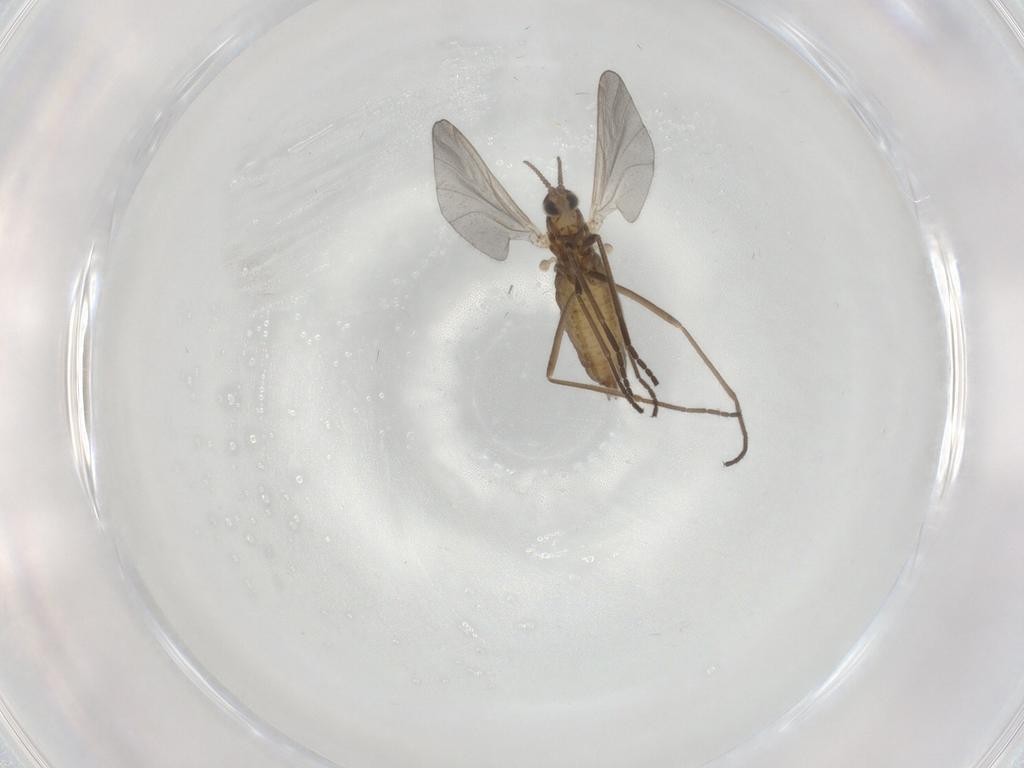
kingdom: Animalia
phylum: Arthropoda
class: Insecta
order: Diptera
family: Cecidomyiidae
